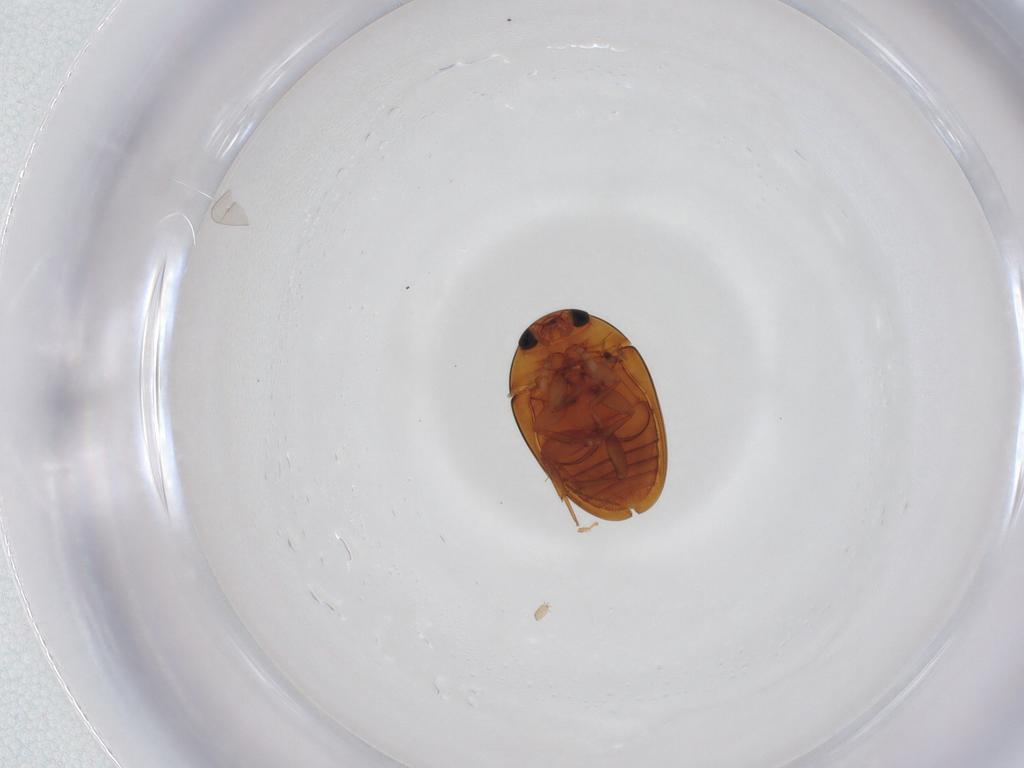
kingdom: Animalia
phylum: Arthropoda
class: Insecta
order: Coleoptera
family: Phalacridae
